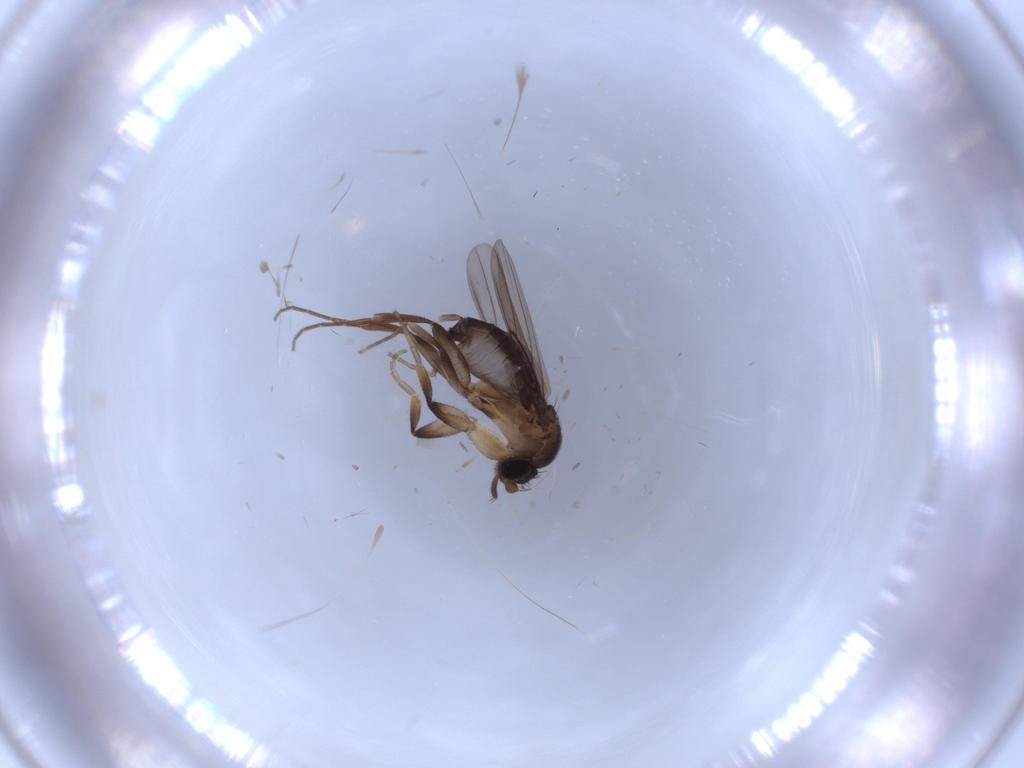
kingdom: Animalia
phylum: Arthropoda
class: Insecta
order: Diptera
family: Phoridae
